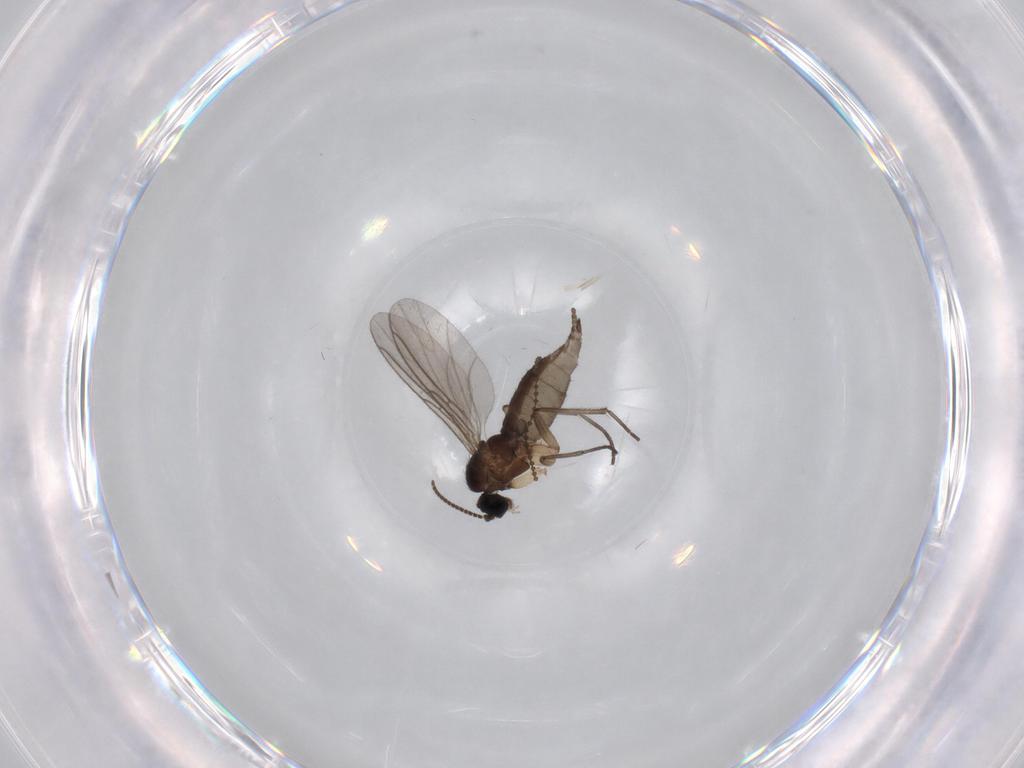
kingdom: Animalia
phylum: Arthropoda
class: Insecta
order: Diptera
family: Sciaridae
